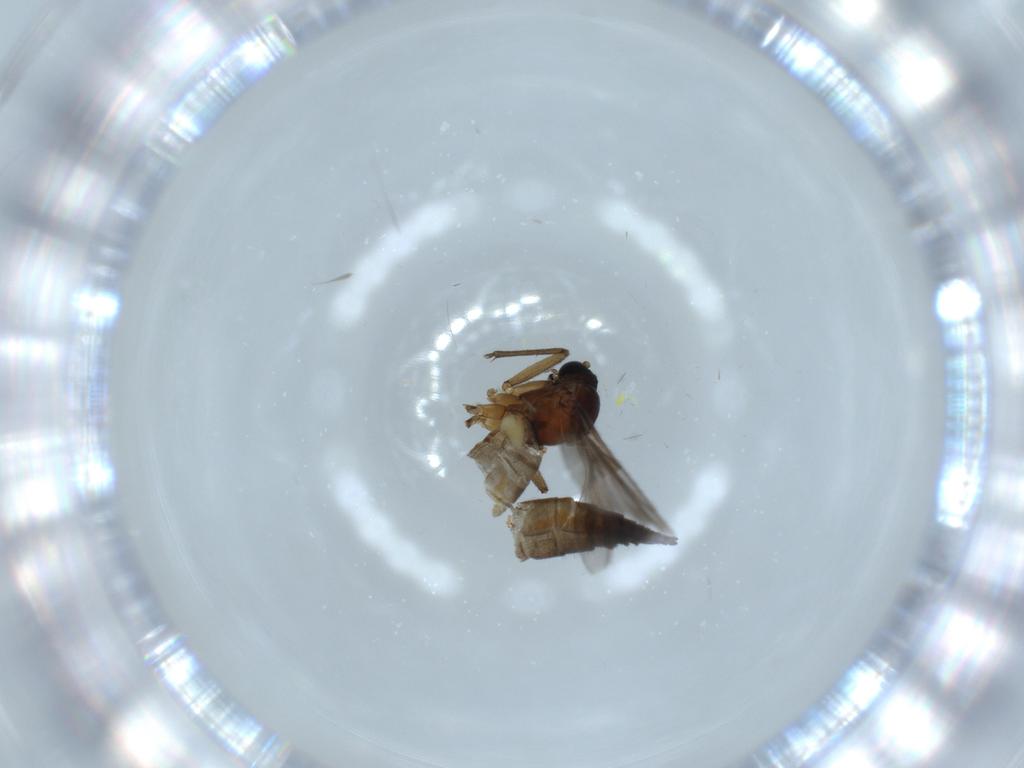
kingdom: Animalia
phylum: Arthropoda
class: Insecta
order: Diptera
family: Sciaridae
